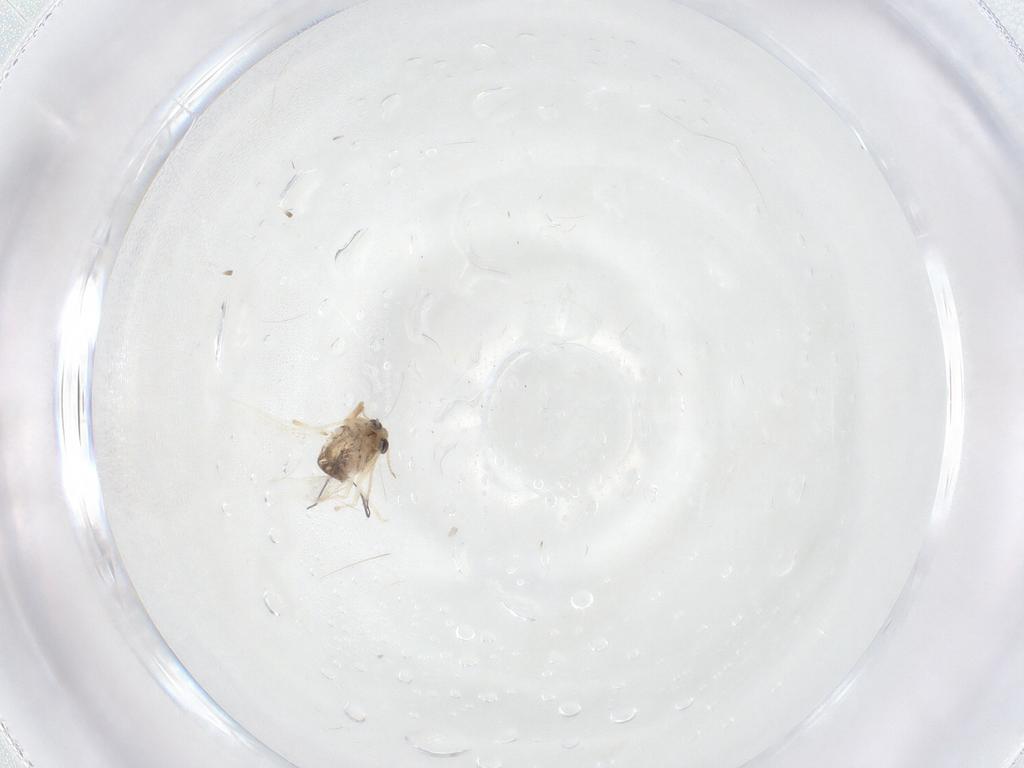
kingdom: Animalia
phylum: Arthropoda
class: Insecta
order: Diptera
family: Chironomidae
